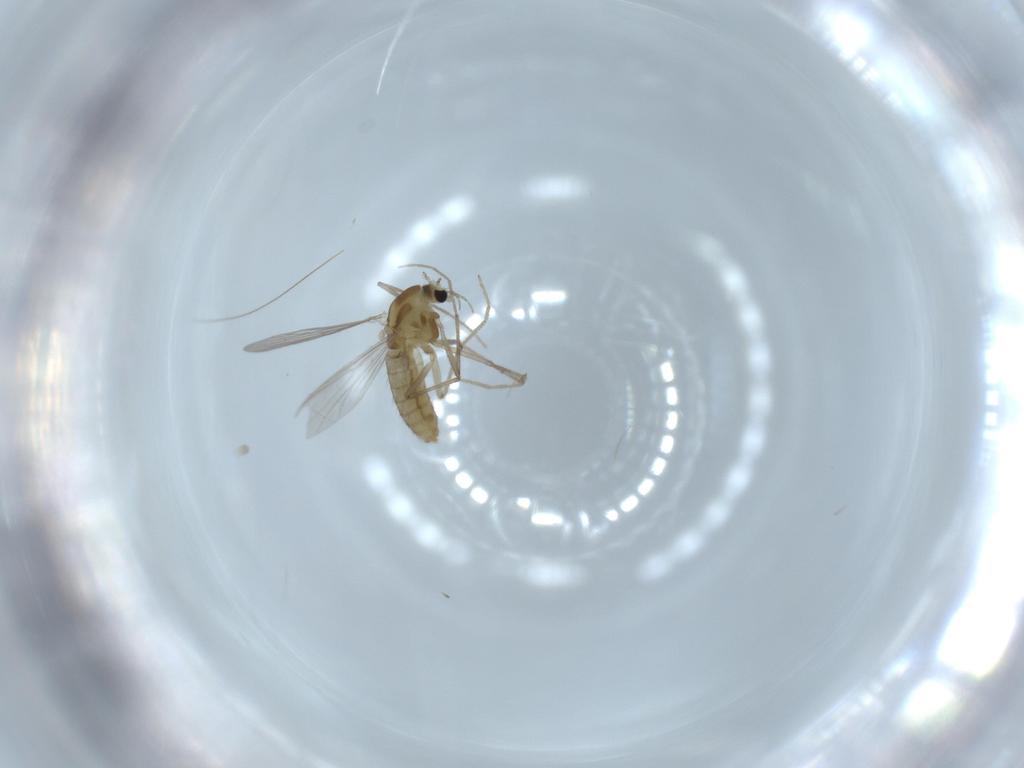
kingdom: Animalia
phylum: Arthropoda
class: Insecta
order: Diptera
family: Chironomidae
